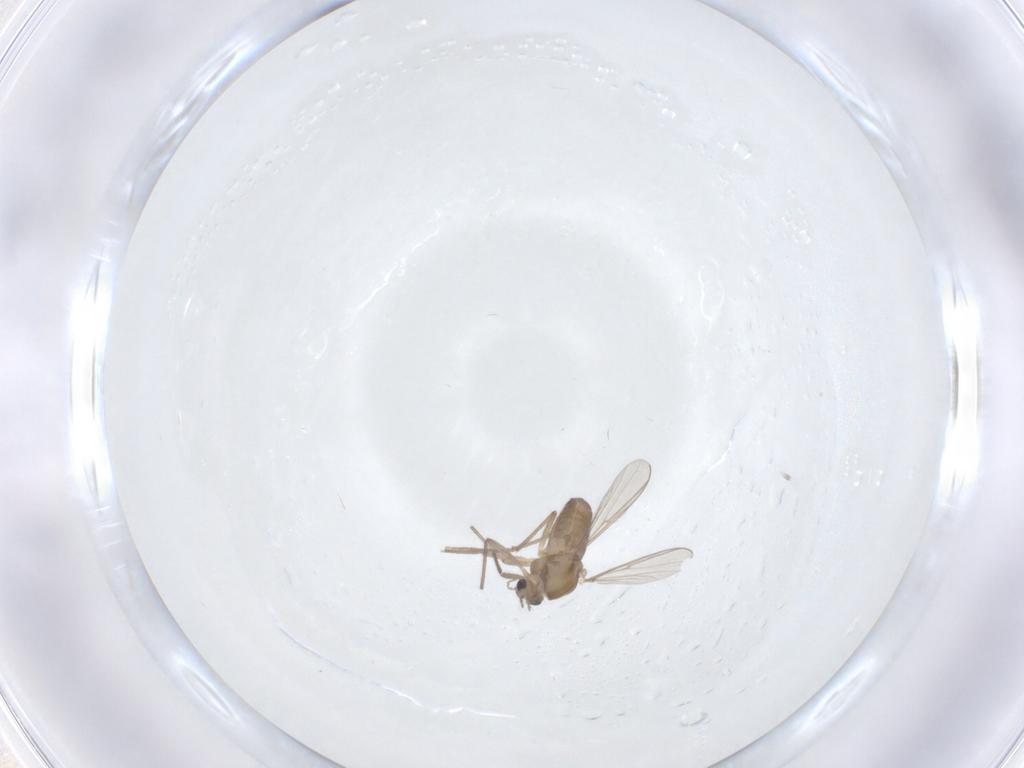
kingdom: Animalia
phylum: Arthropoda
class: Insecta
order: Diptera
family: Chironomidae
